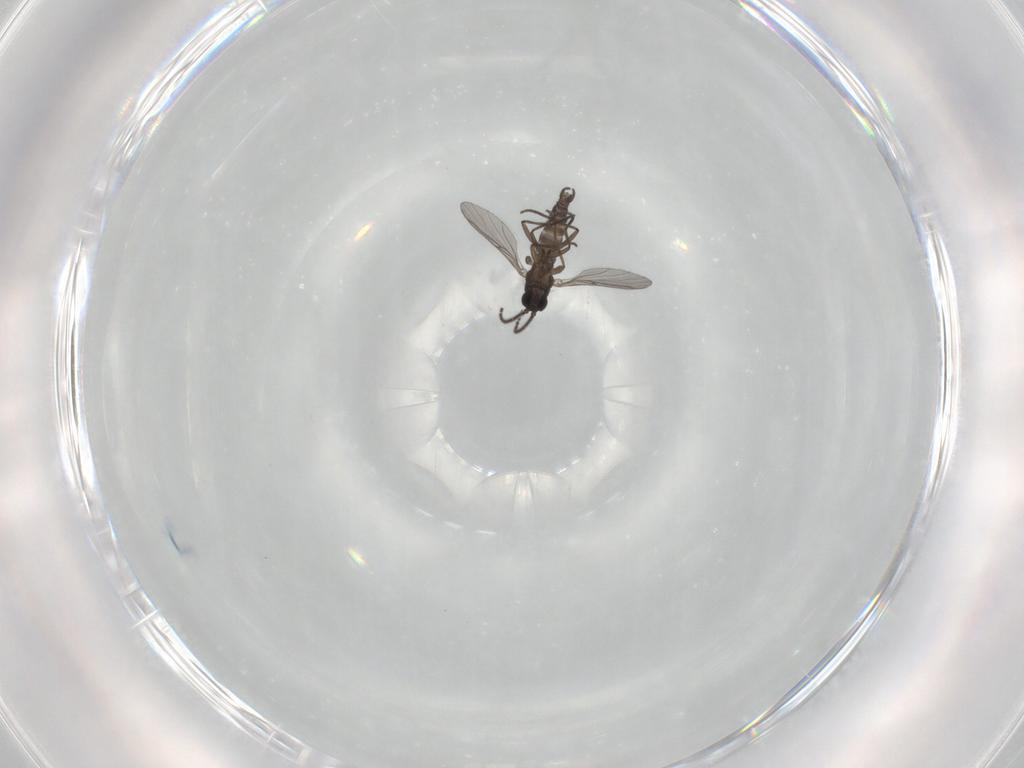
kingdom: Animalia
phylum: Arthropoda
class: Insecta
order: Diptera
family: Sciaridae
